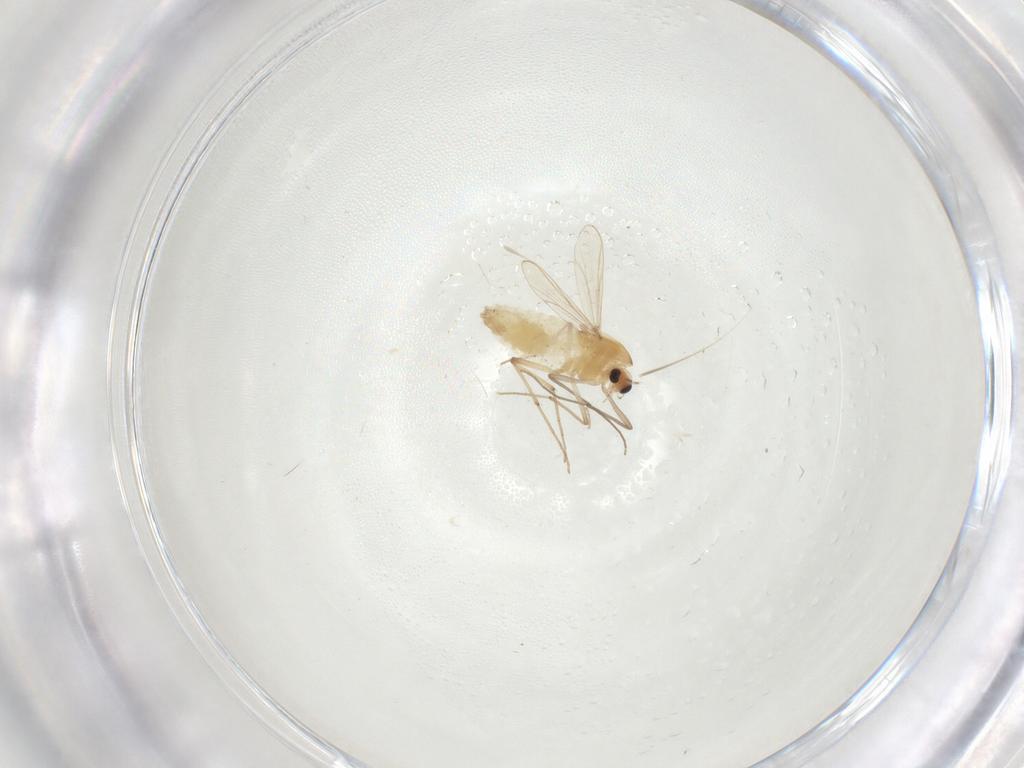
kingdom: Animalia
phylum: Arthropoda
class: Insecta
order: Diptera
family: Chironomidae
